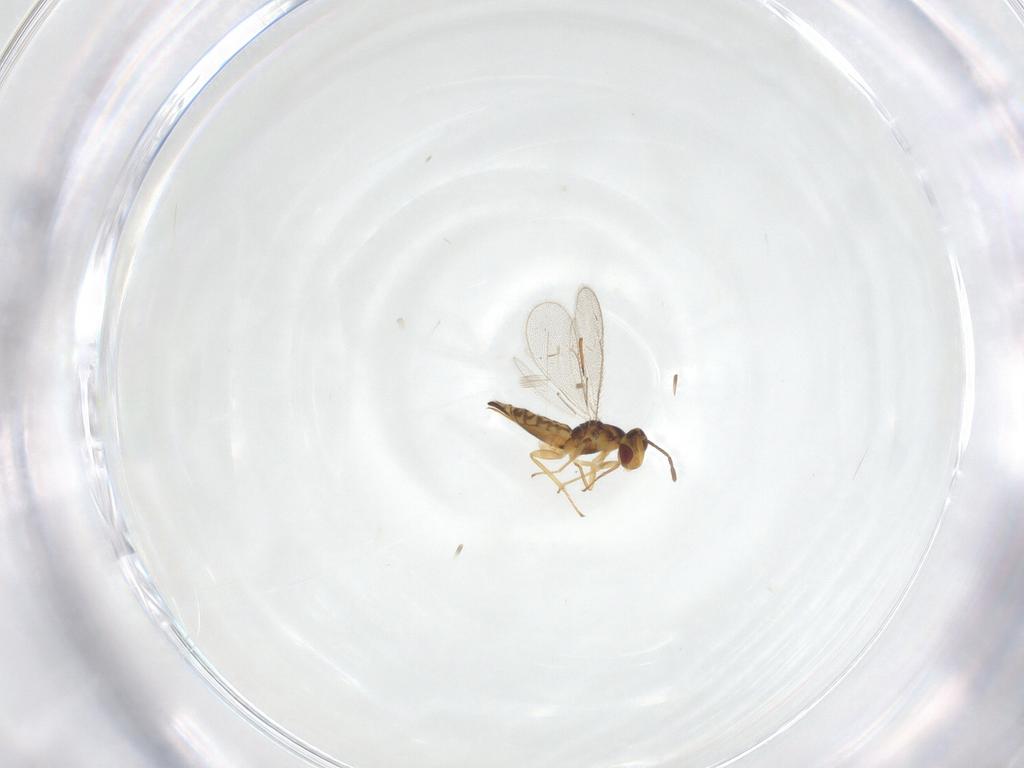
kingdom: Animalia
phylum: Arthropoda
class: Insecta
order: Hymenoptera
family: Eulophidae
